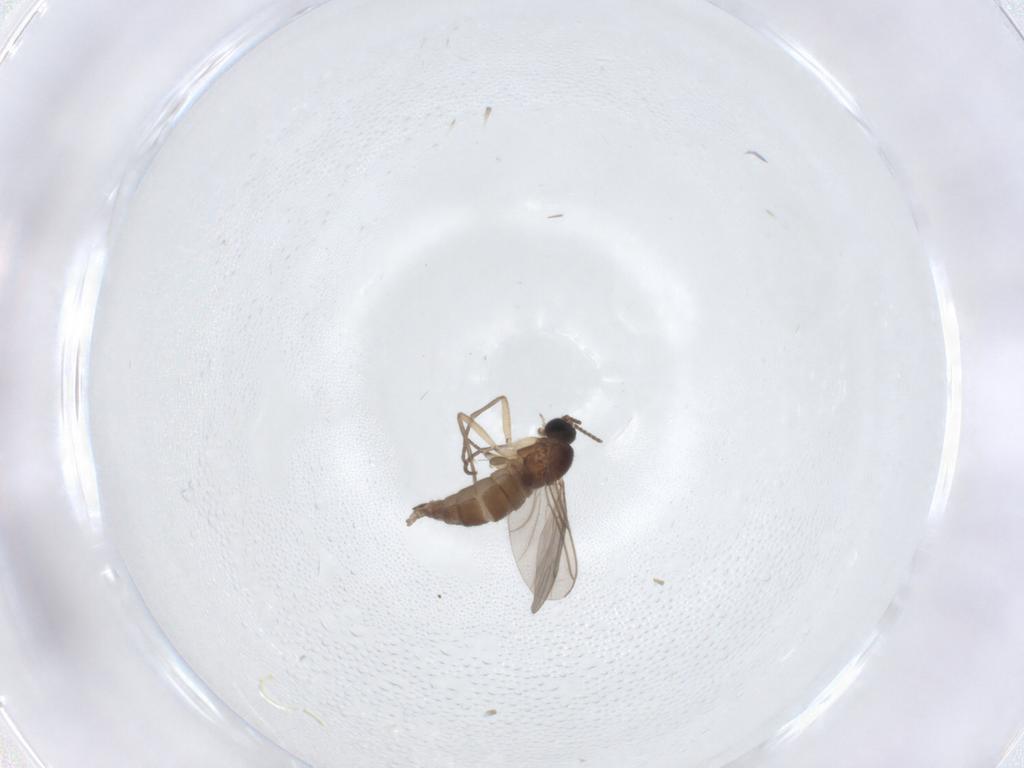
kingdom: Animalia
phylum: Arthropoda
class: Insecta
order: Diptera
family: Sciaridae
